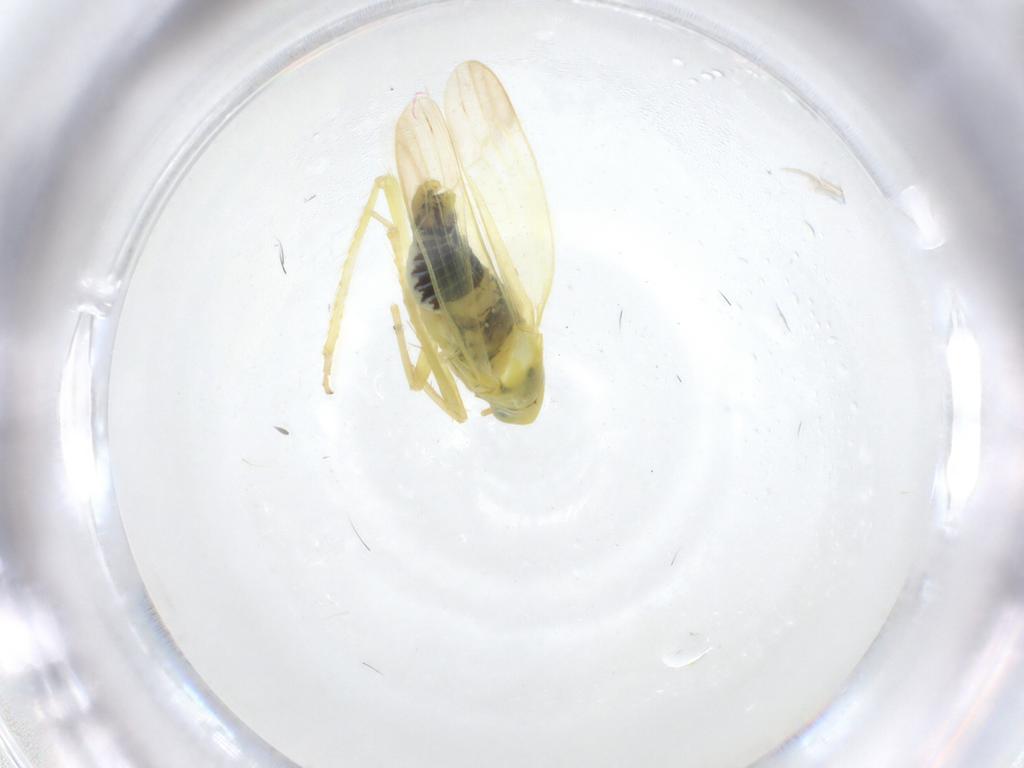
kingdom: Animalia
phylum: Arthropoda
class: Insecta
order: Hemiptera
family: Cicadellidae
